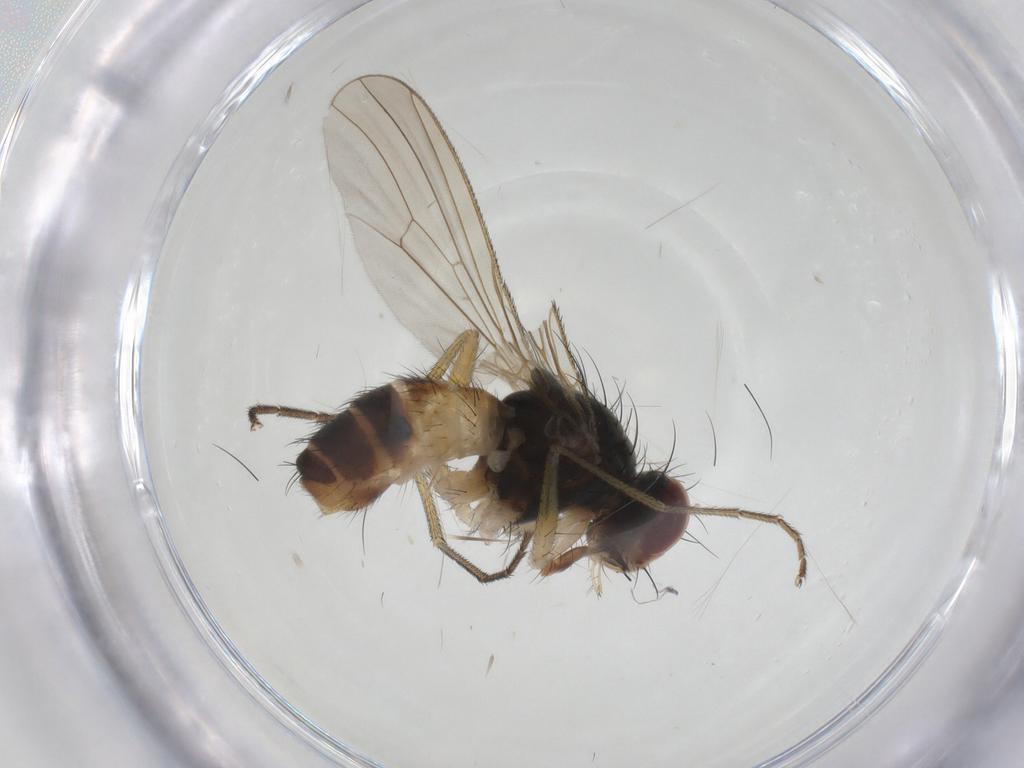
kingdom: Animalia
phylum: Arthropoda
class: Insecta
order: Diptera
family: Muscidae
